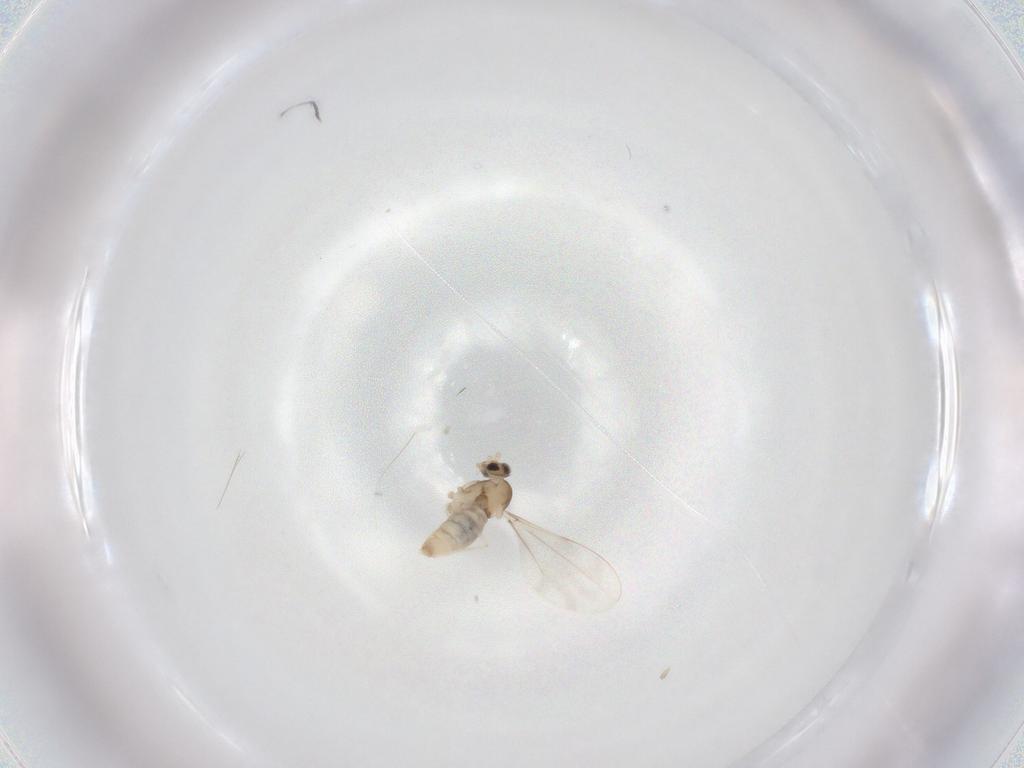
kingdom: Animalia
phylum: Arthropoda
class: Insecta
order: Diptera
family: Cecidomyiidae
